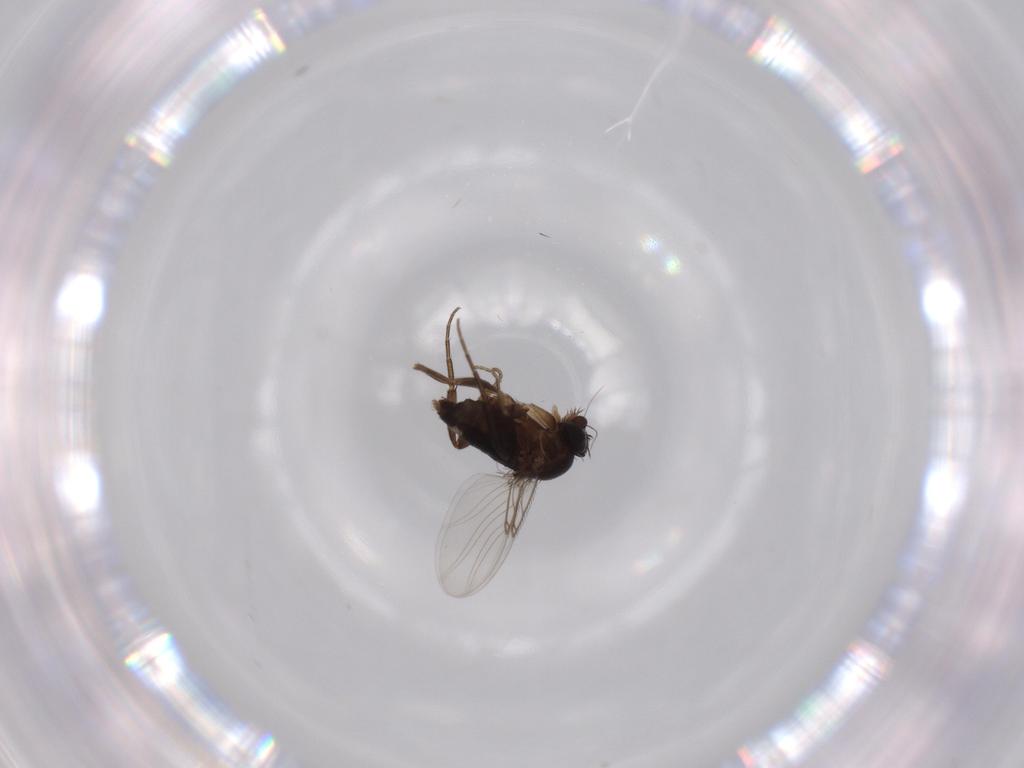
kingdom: Animalia
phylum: Arthropoda
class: Insecta
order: Diptera
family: Phoridae
